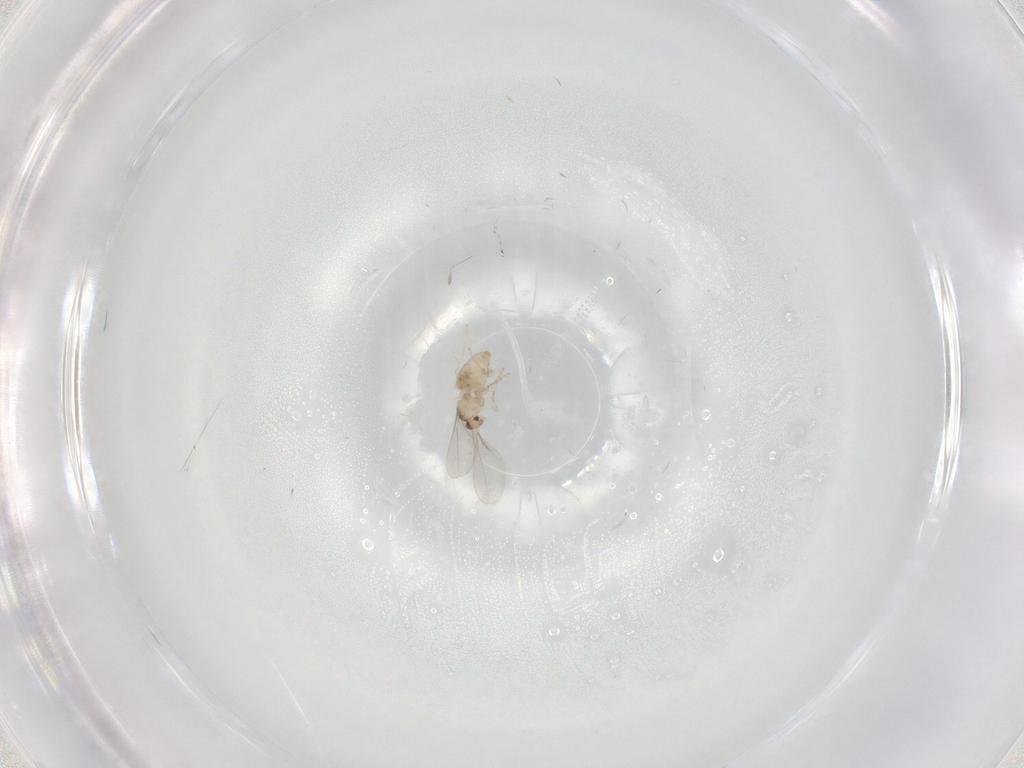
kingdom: Animalia
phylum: Arthropoda
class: Insecta
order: Diptera
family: Cecidomyiidae
